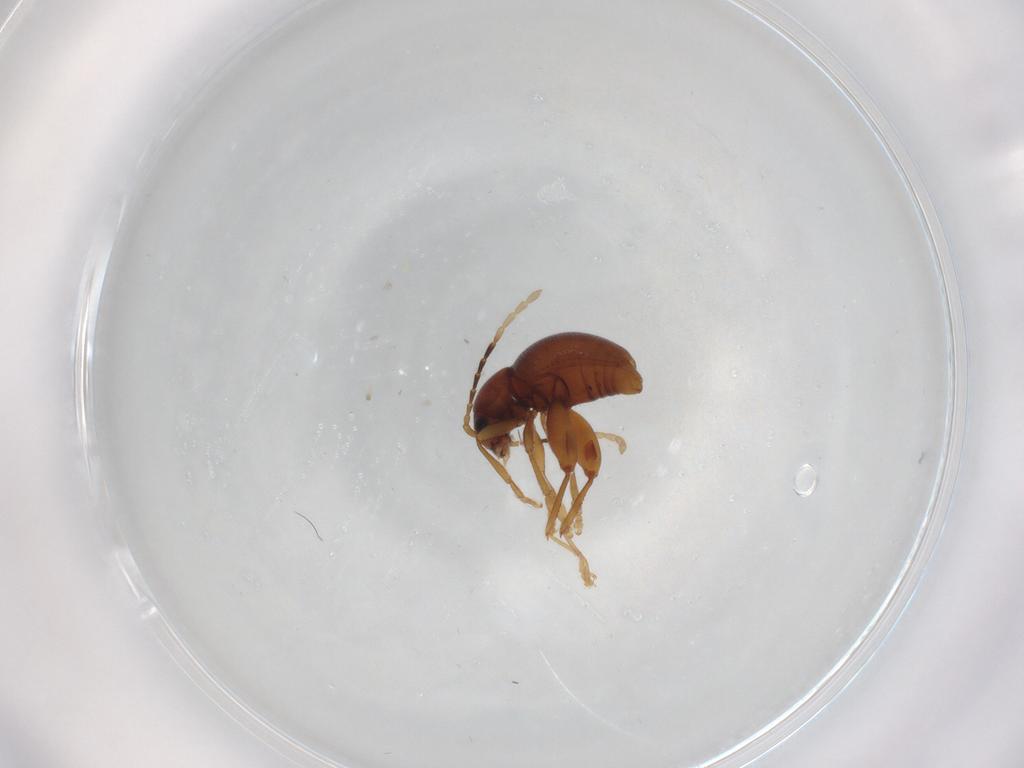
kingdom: Animalia
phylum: Arthropoda
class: Insecta
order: Coleoptera
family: Chrysomelidae
